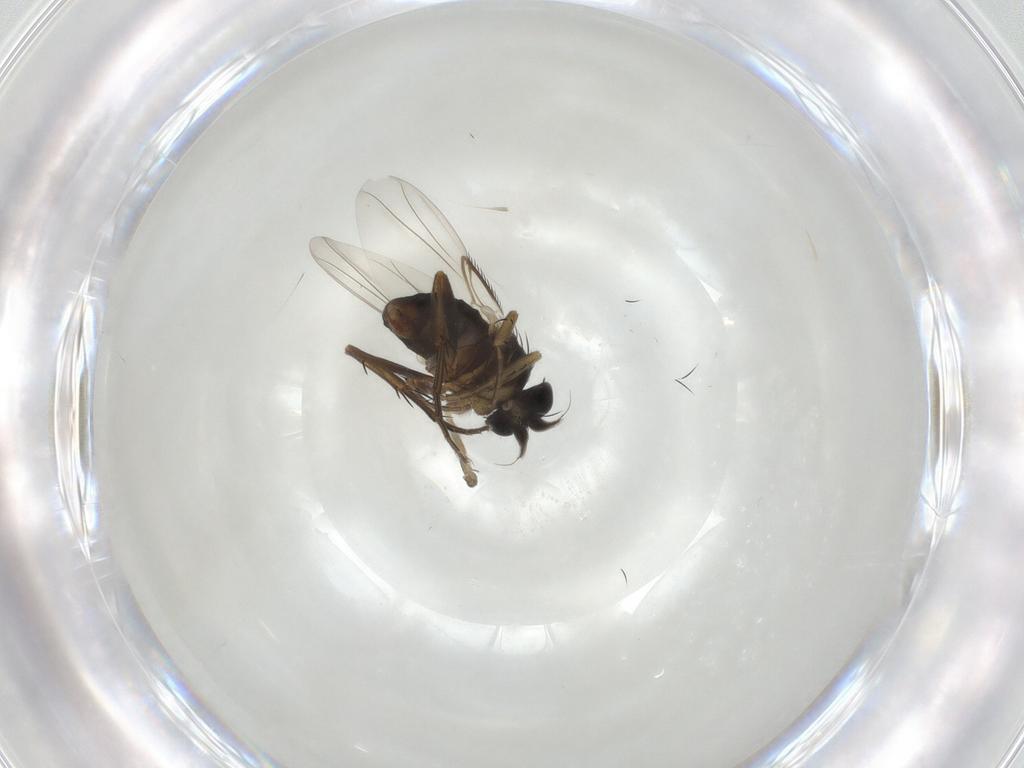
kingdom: Animalia
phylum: Arthropoda
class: Insecta
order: Diptera
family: Phoridae
